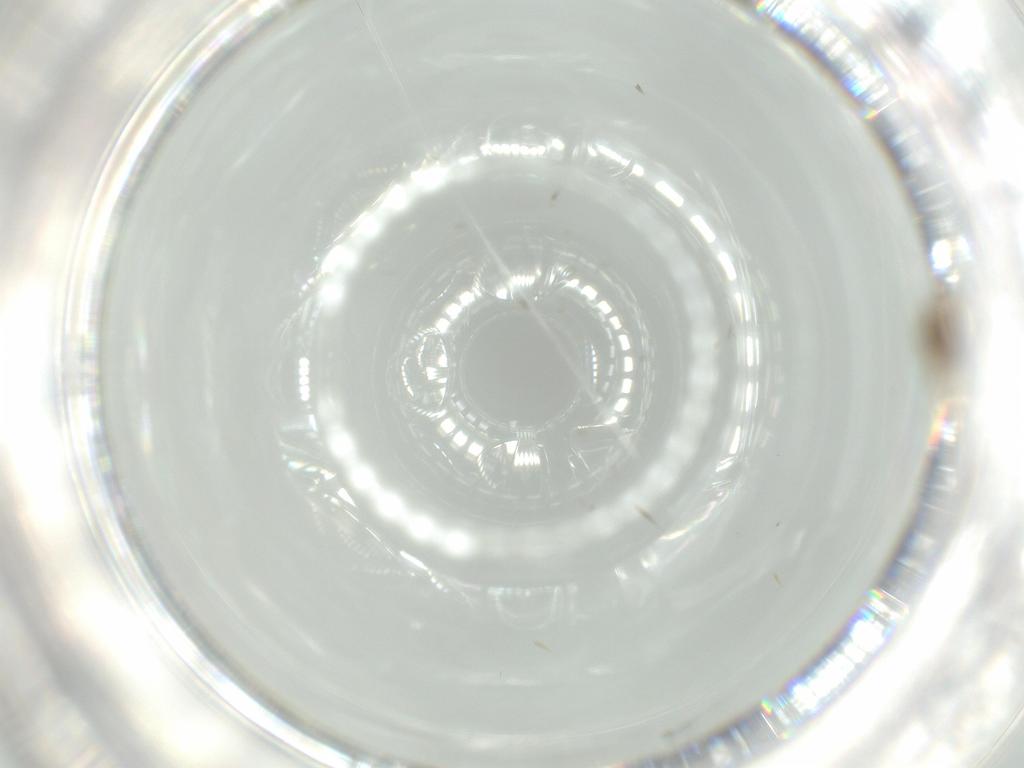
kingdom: Animalia
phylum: Arthropoda
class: Insecta
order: Diptera
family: Chironomidae
